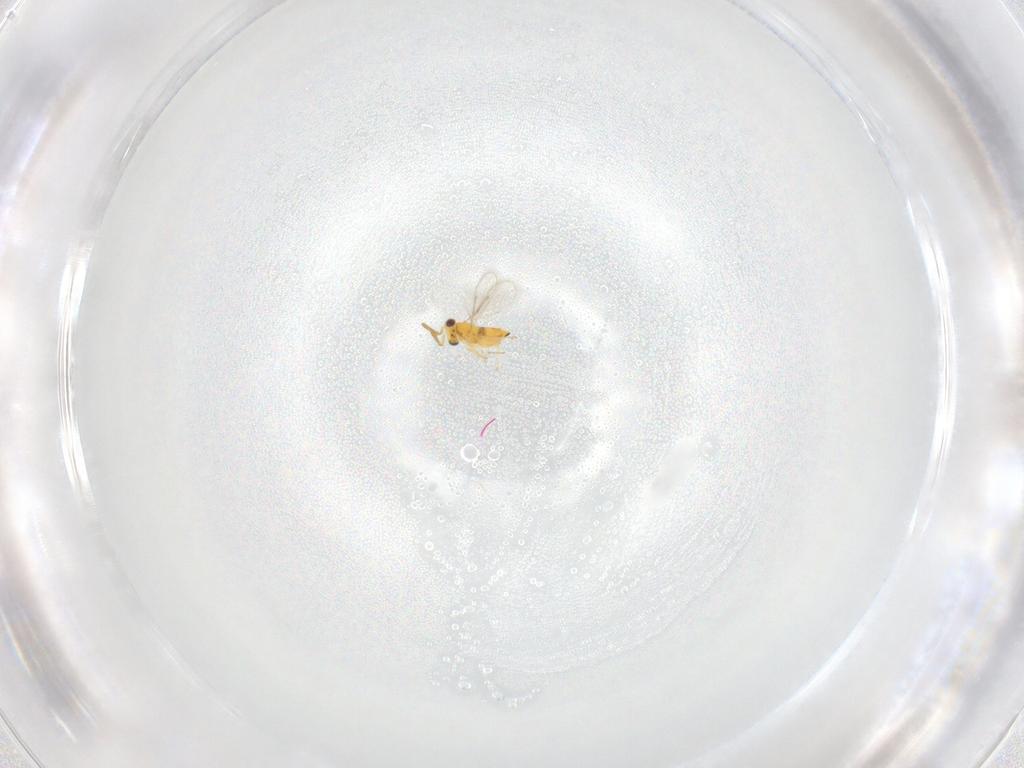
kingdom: Animalia
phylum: Arthropoda
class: Insecta
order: Hymenoptera
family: Aphelinidae
